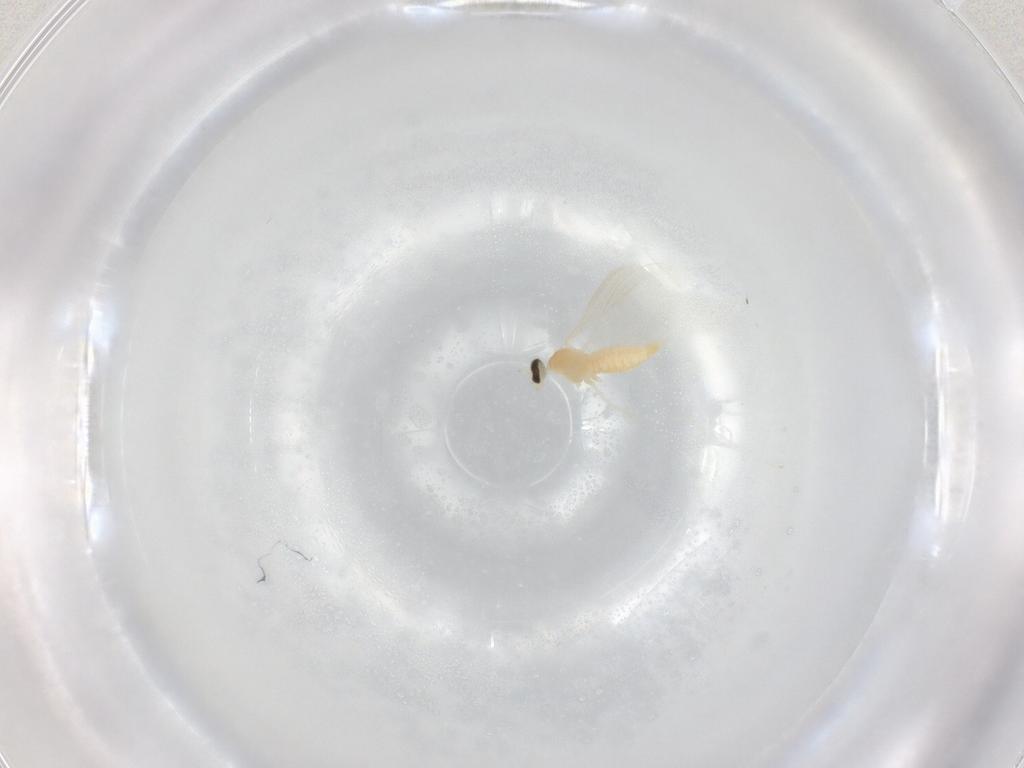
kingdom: Animalia
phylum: Arthropoda
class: Insecta
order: Diptera
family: Cecidomyiidae
